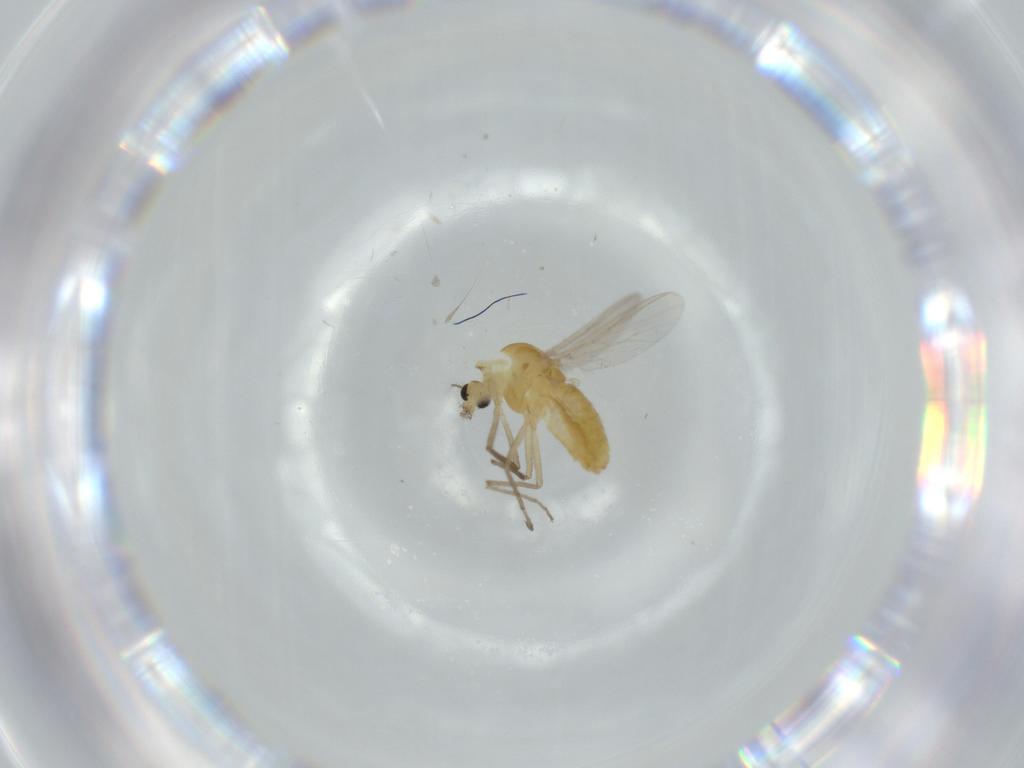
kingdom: Animalia
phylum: Arthropoda
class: Insecta
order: Diptera
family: Chironomidae
